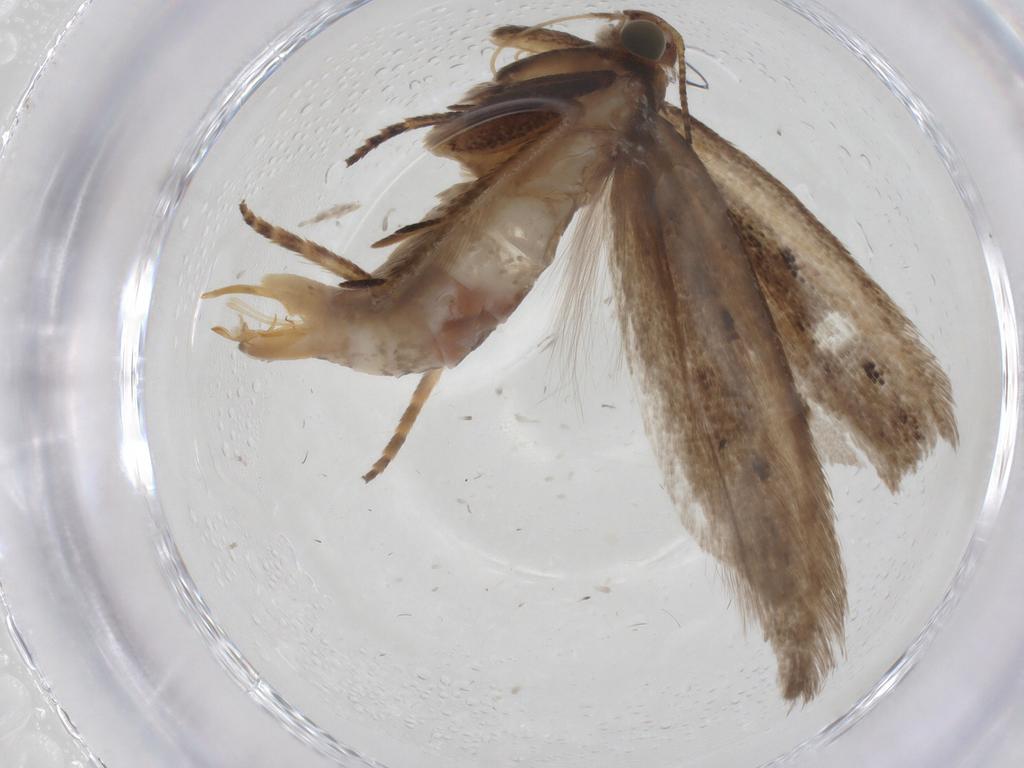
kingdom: Animalia
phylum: Arthropoda
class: Insecta
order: Lepidoptera
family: Gelechiidae
